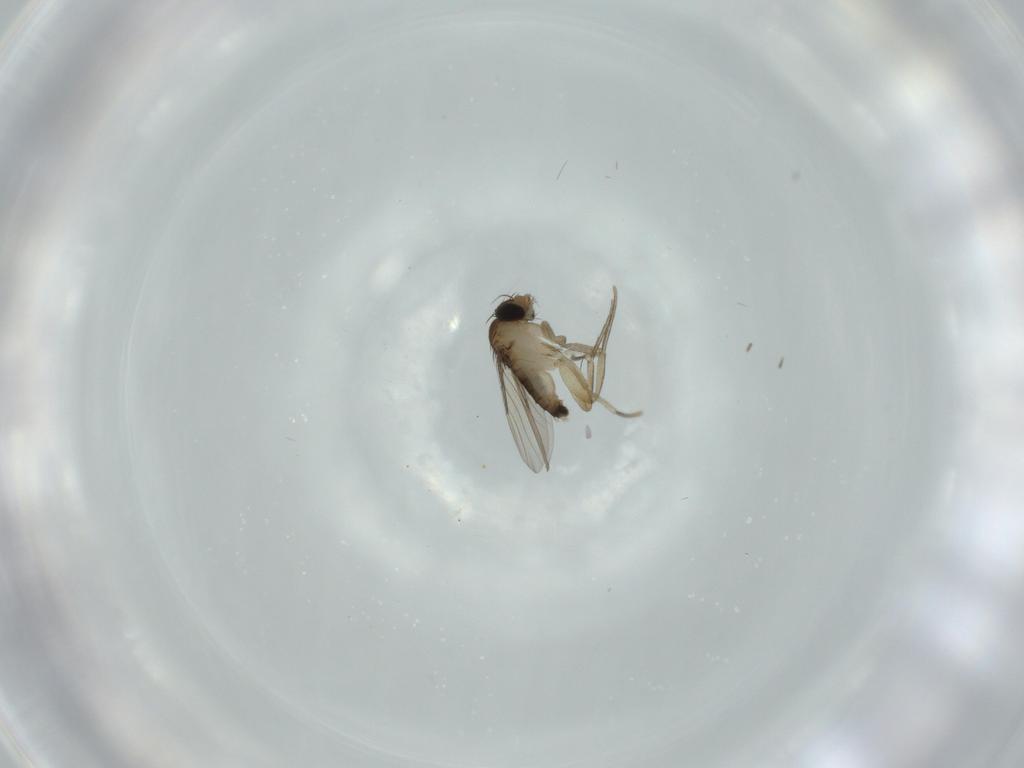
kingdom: Animalia
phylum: Arthropoda
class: Insecta
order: Diptera
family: Phoridae
